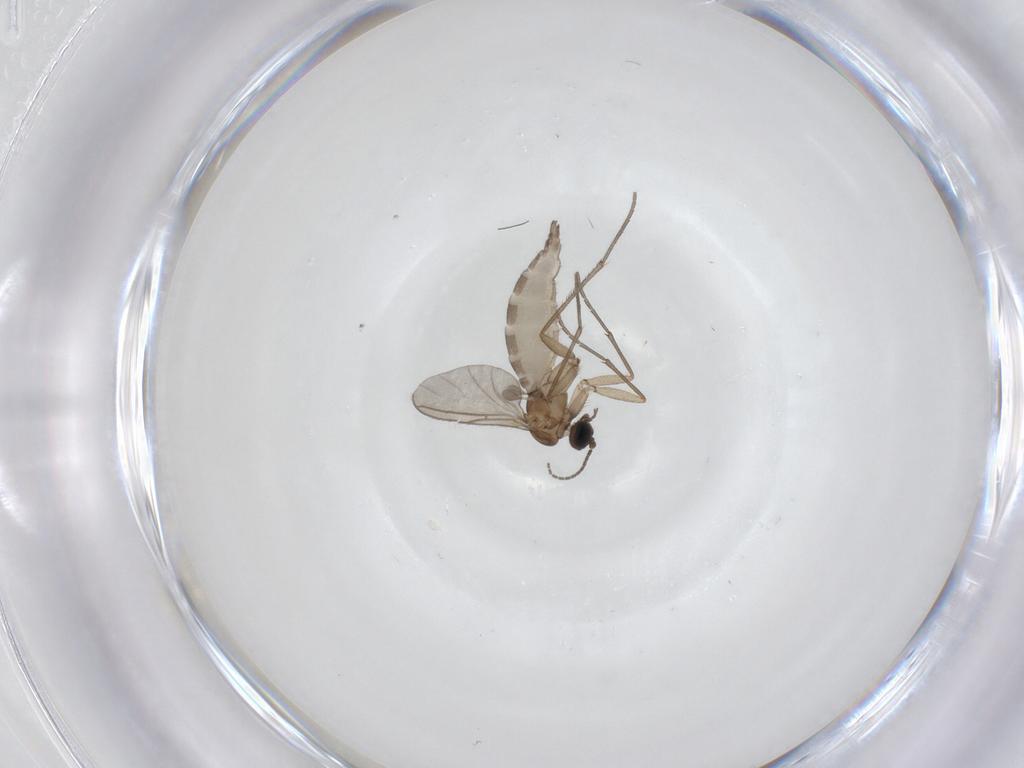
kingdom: Animalia
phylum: Arthropoda
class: Insecta
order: Diptera
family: Sciaridae
